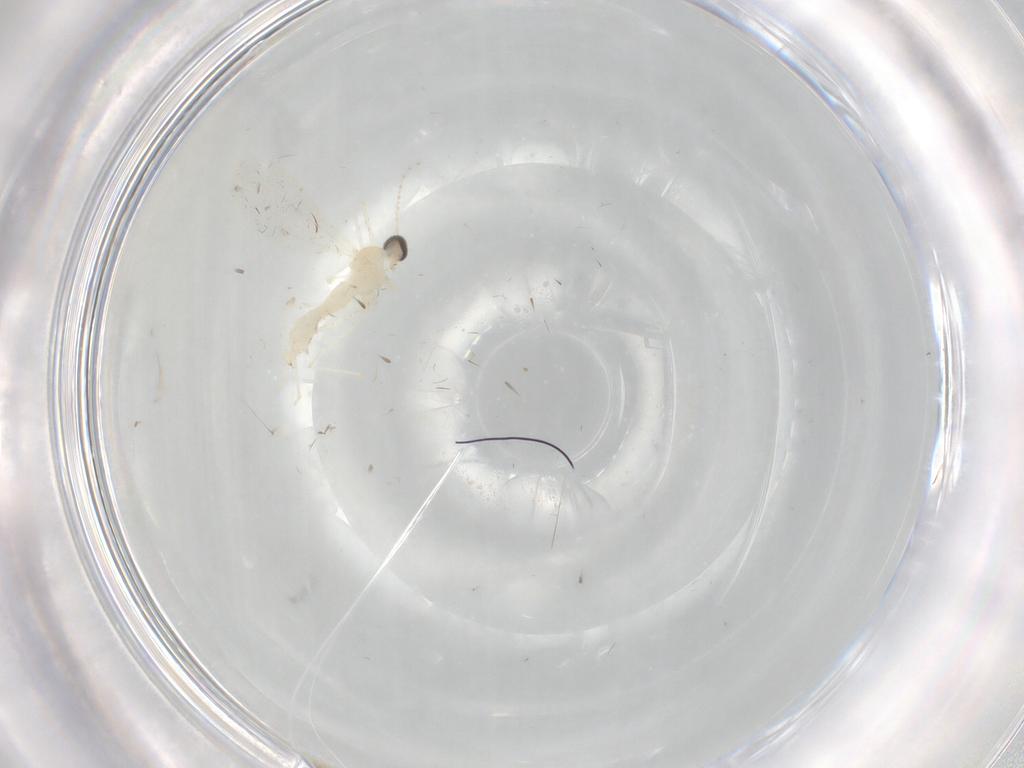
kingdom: Animalia
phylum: Arthropoda
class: Insecta
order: Diptera
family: Cecidomyiidae
